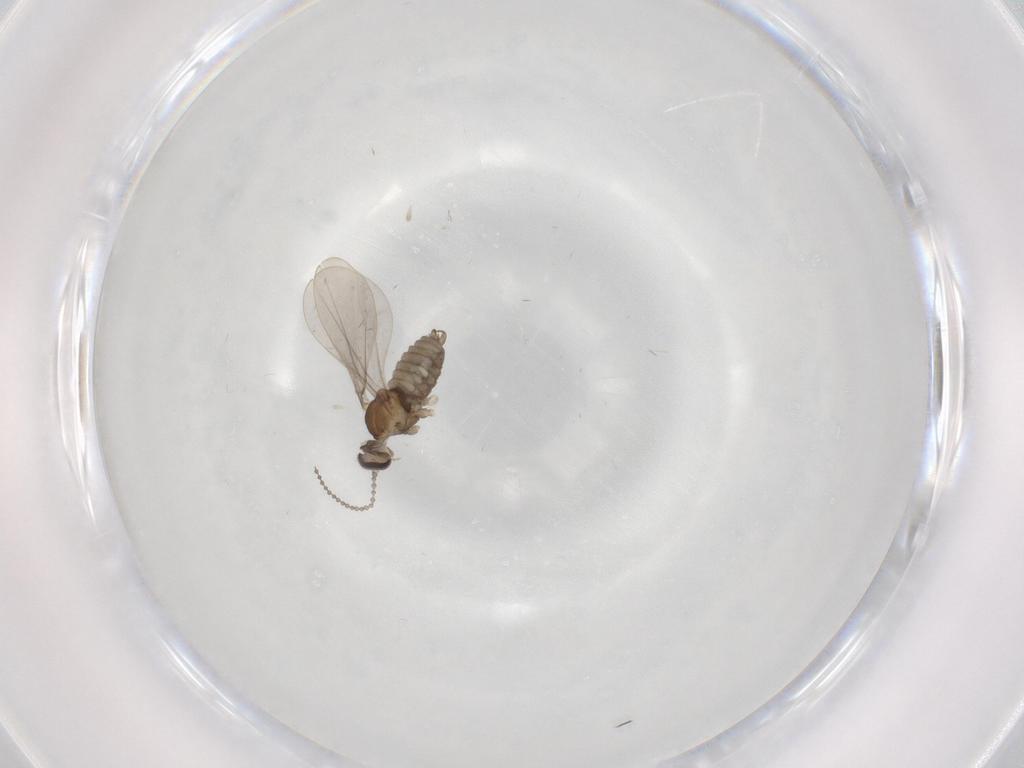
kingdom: Animalia
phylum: Arthropoda
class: Insecta
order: Diptera
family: Cecidomyiidae
